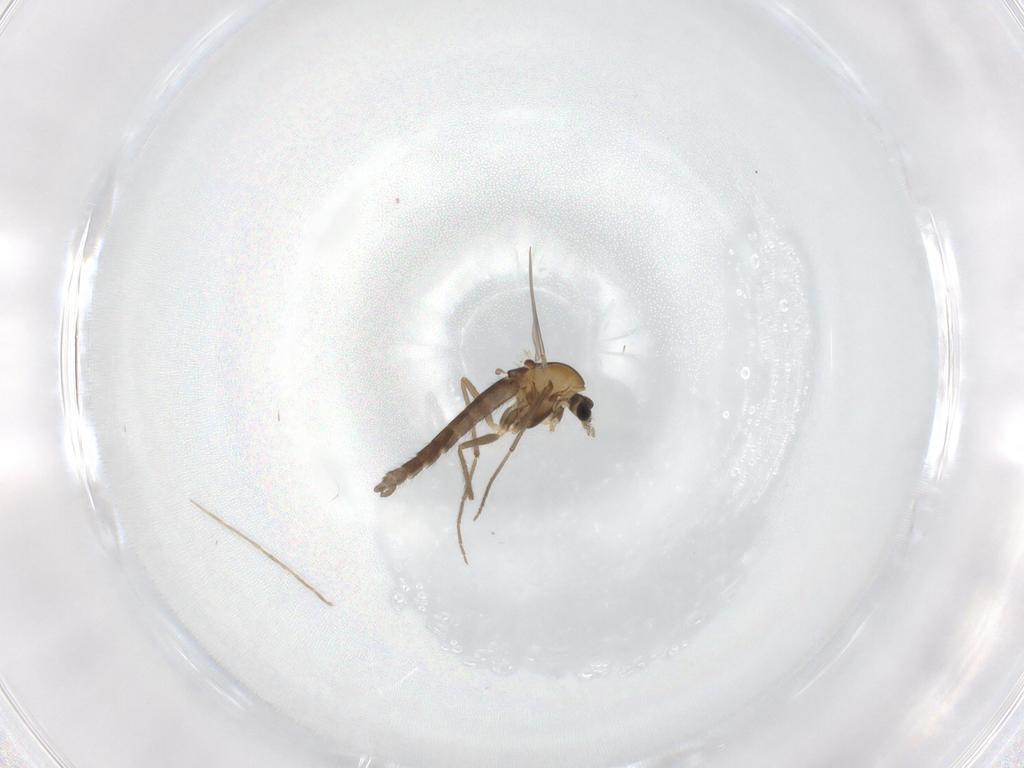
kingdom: Animalia
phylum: Arthropoda
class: Insecta
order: Diptera
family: Chironomidae
